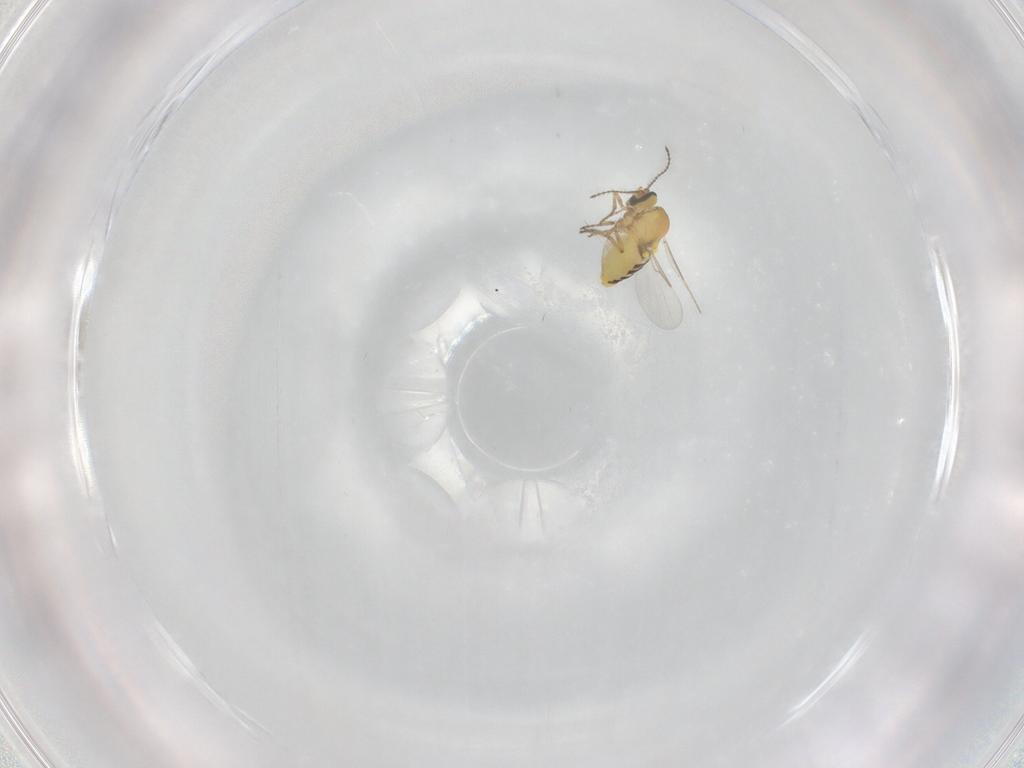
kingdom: Animalia
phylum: Arthropoda
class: Insecta
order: Diptera
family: Ceratopogonidae
